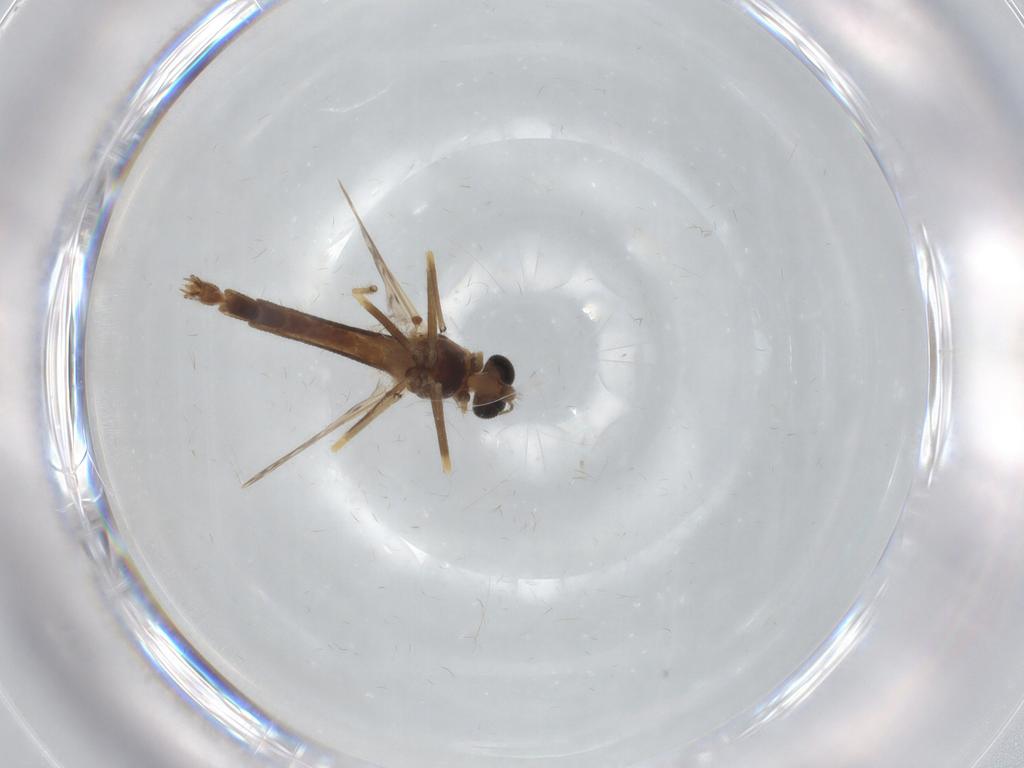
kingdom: Animalia
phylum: Arthropoda
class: Insecta
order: Diptera
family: Chironomidae
